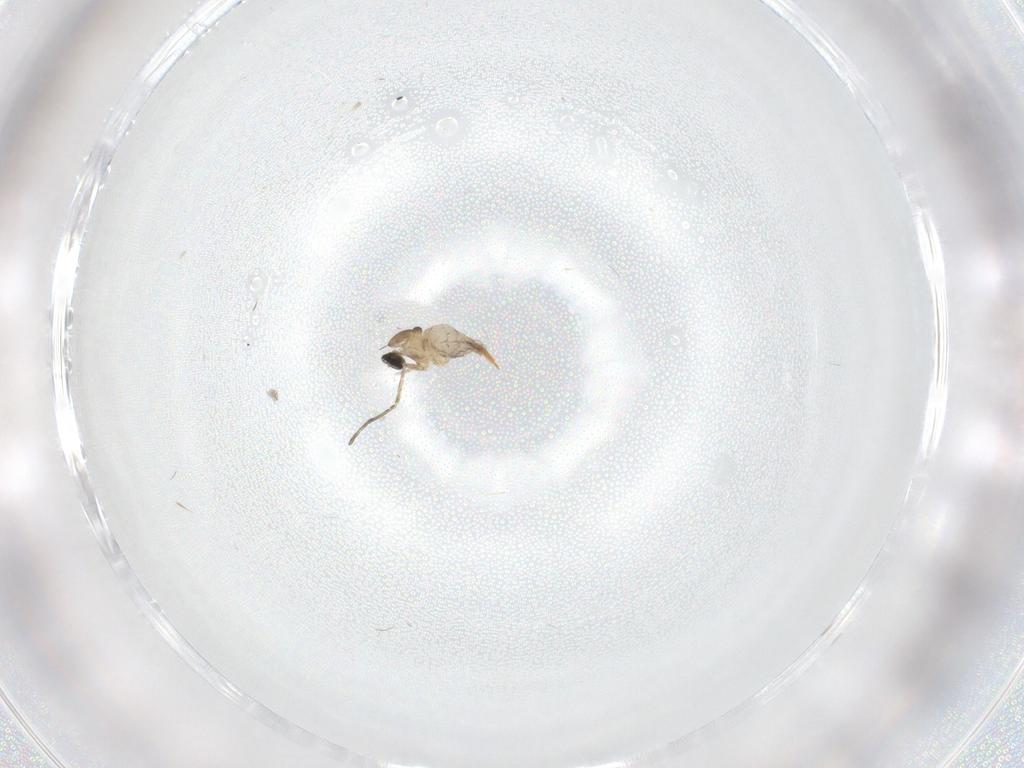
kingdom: Animalia
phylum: Arthropoda
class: Insecta
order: Diptera
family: Cecidomyiidae
